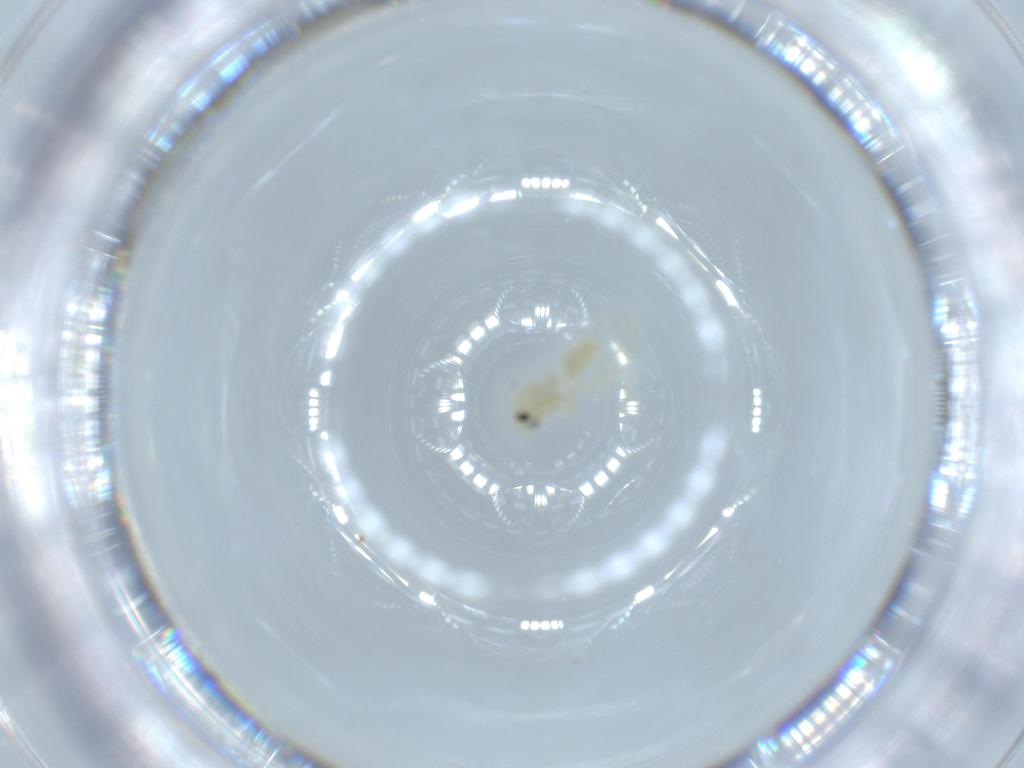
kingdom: Animalia
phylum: Arthropoda
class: Insecta
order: Hemiptera
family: Aleyrodidae
